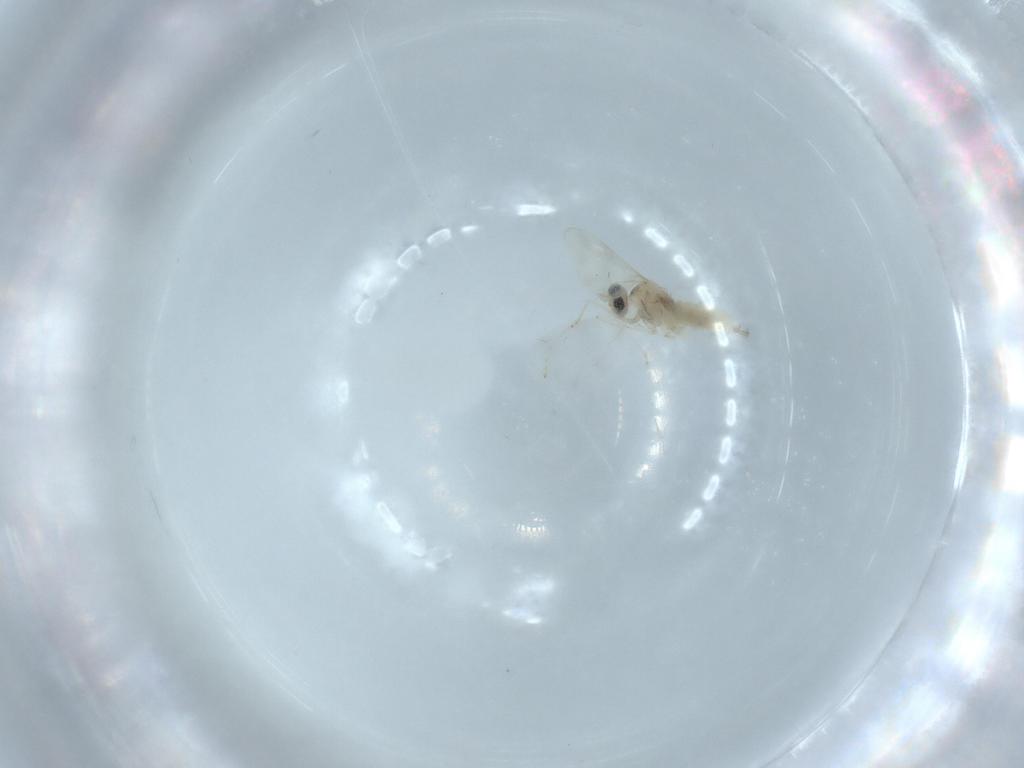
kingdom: Animalia
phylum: Arthropoda
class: Insecta
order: Diptera
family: Cecidomyiidae
